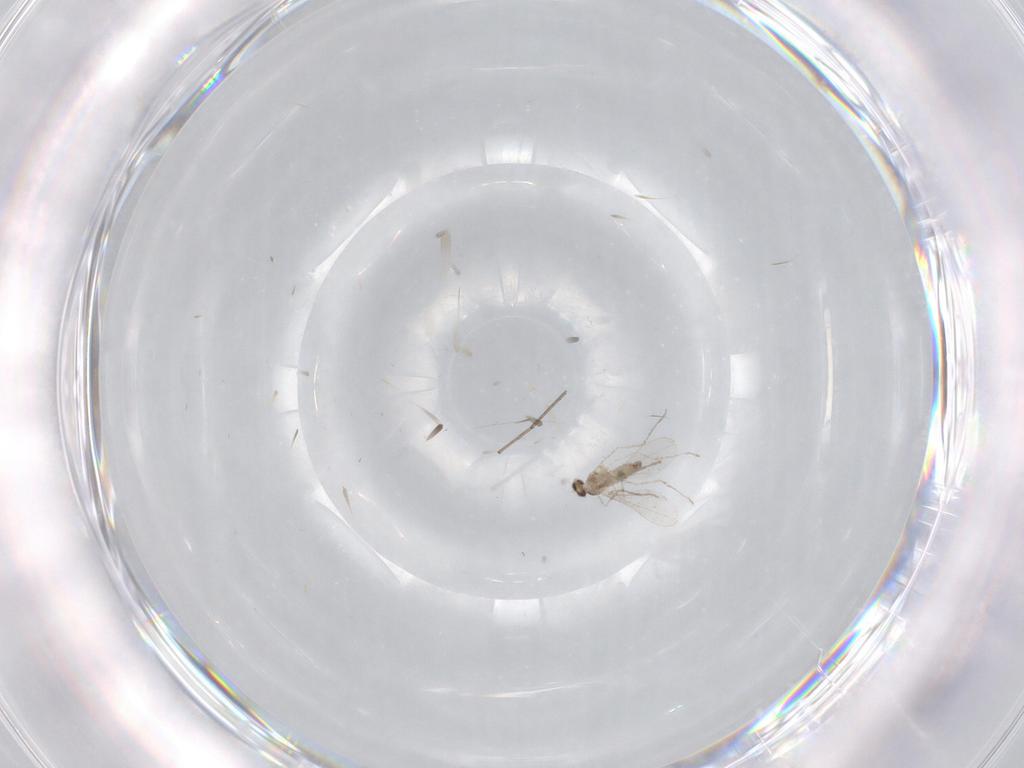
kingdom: Animalia
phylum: Arthropoda
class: Insecta
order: Diptera
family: Cecidomyiidae
